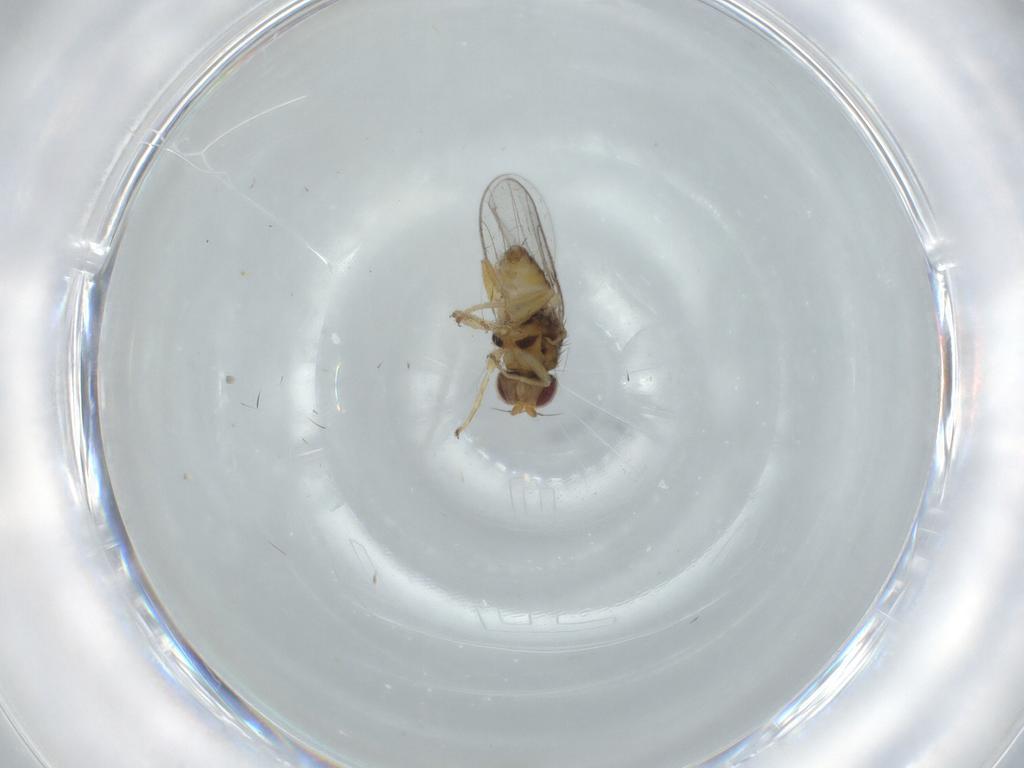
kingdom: Animalia
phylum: Arthropoda
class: Insecta
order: Diptera
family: Chloropidae
